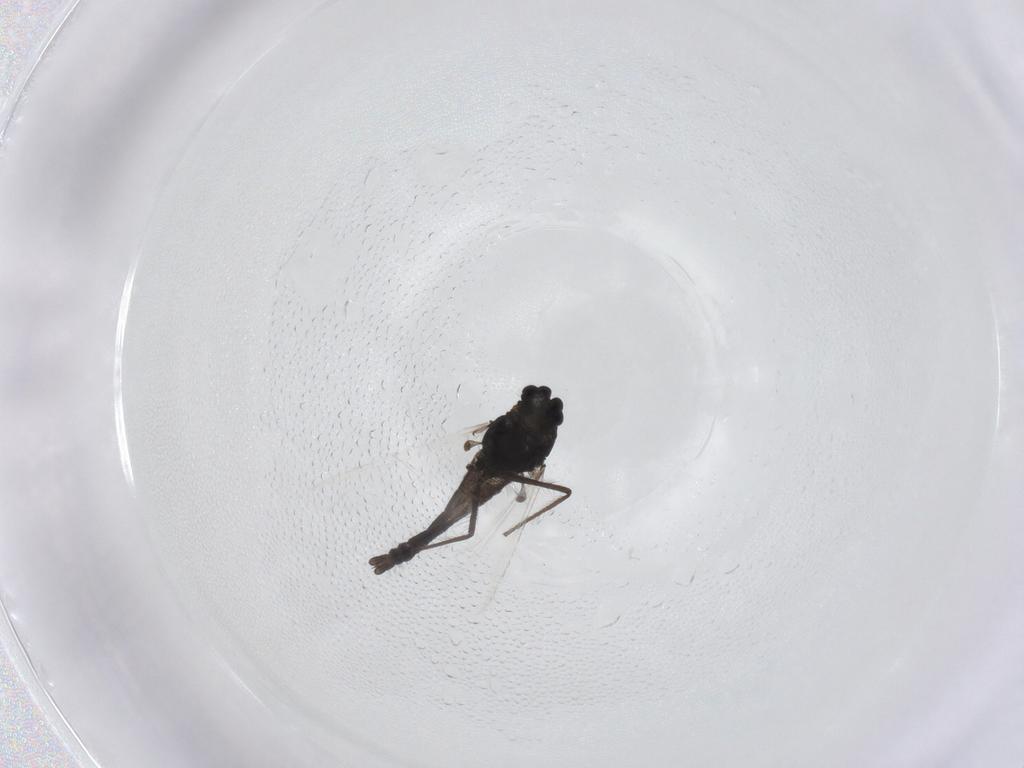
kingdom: Animalia
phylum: Arthropoda
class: Insecta
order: Diptera
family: Chironomidae
